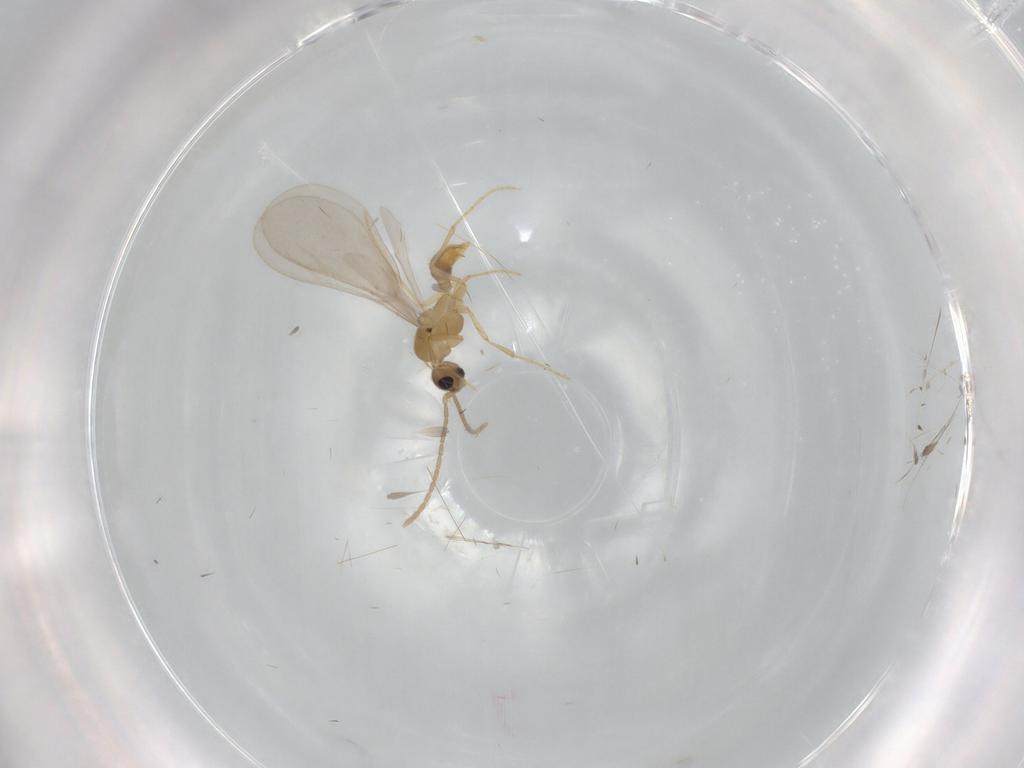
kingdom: Animalia
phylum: Arthropoda
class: Insecta
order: Hymenoptera
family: Formicidae
